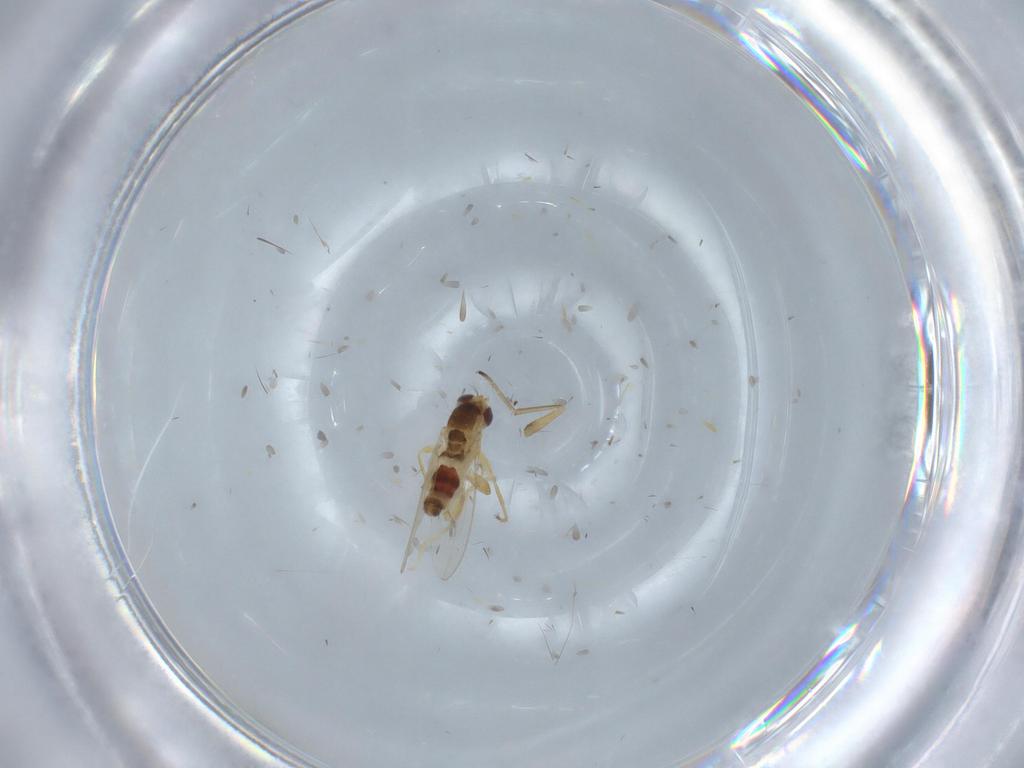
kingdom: Animalia
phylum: Arthropoda
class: Insecta
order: Diptera
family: Periscelididae
